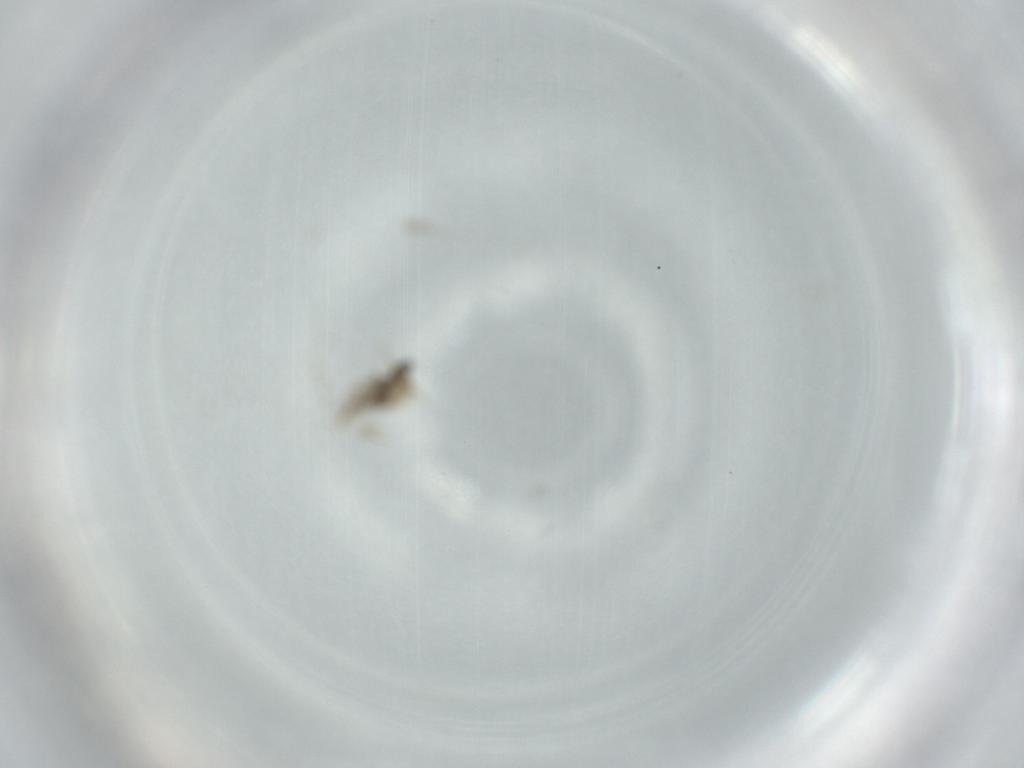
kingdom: Animalia
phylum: Arthropoda
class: Insecta
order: Diptera
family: Cecidomyiidae
